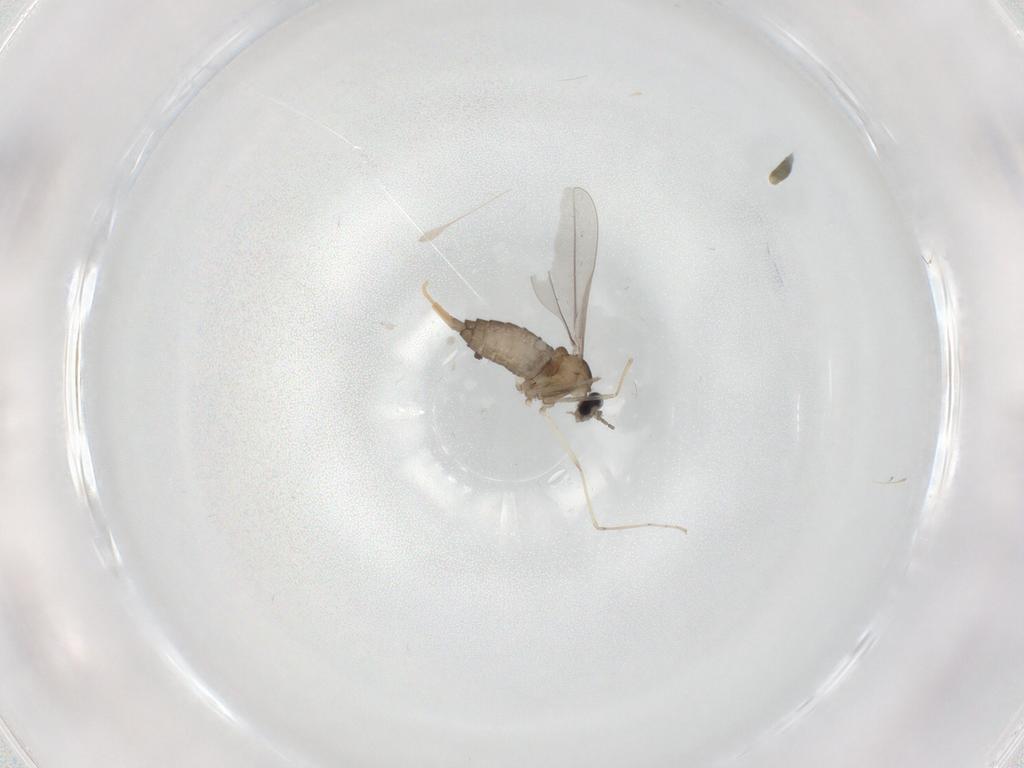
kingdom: Animalia
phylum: Arthropoda
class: Insecta
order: Diptera
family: Cecidomyiidae
